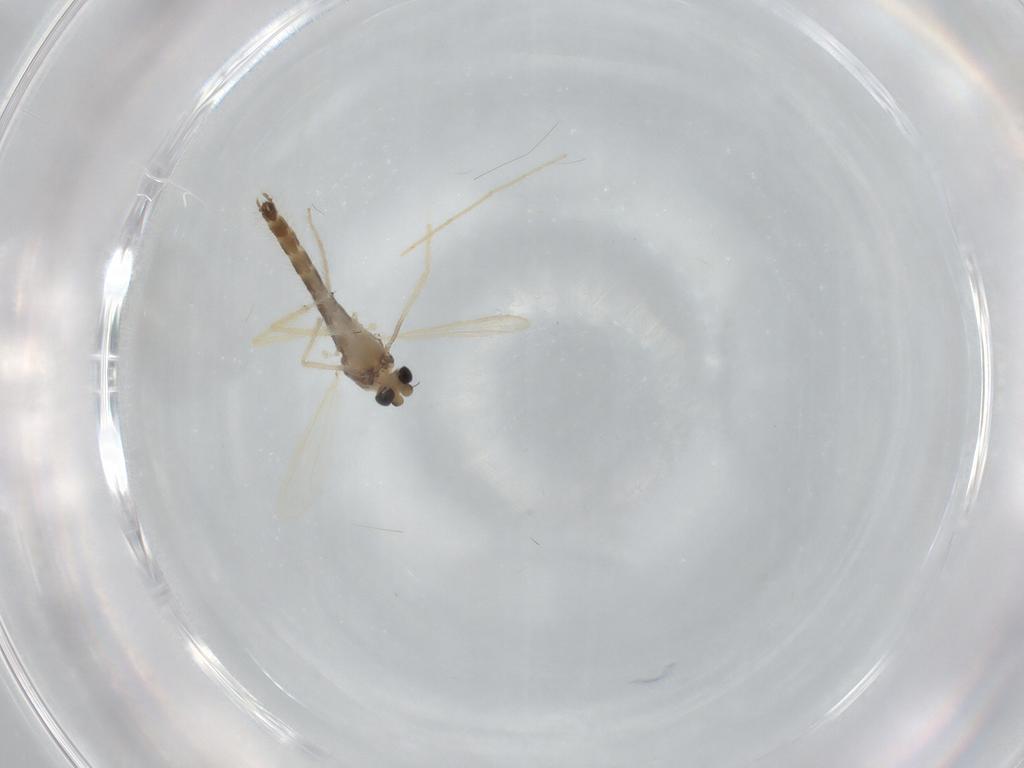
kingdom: Animalia
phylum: Arthropoda
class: Insecta
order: Diptera
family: Chironomidae
